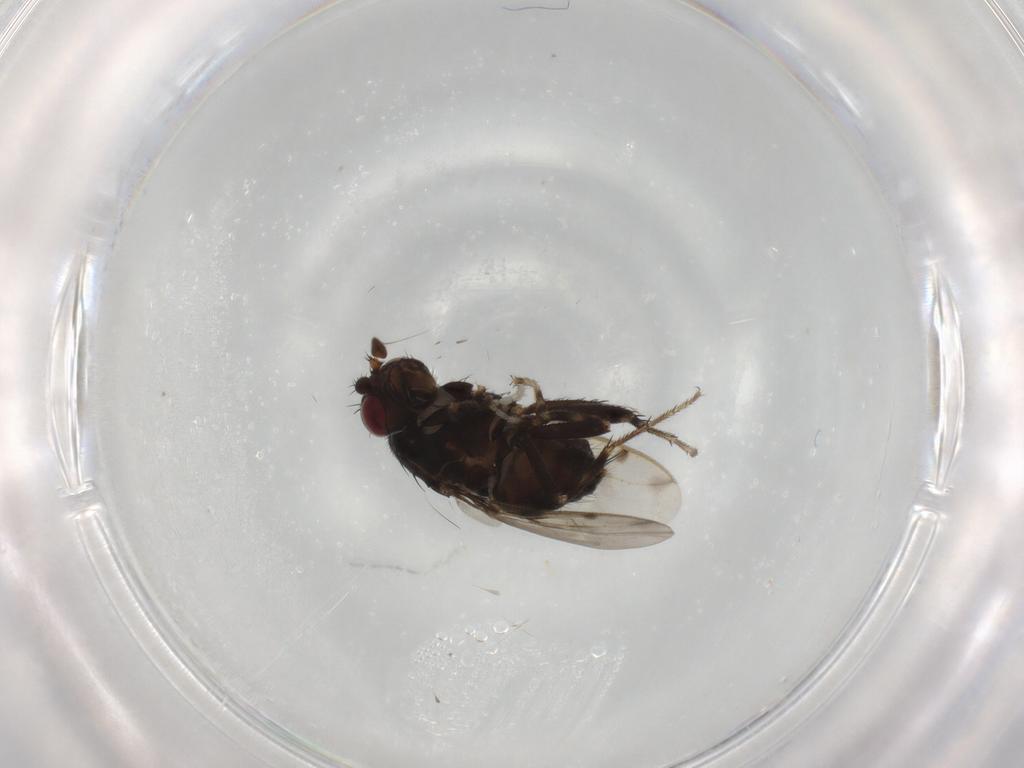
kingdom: Animalia
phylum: Arthropoda
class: Insecta
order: Diptera
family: Sphaeroceridae
